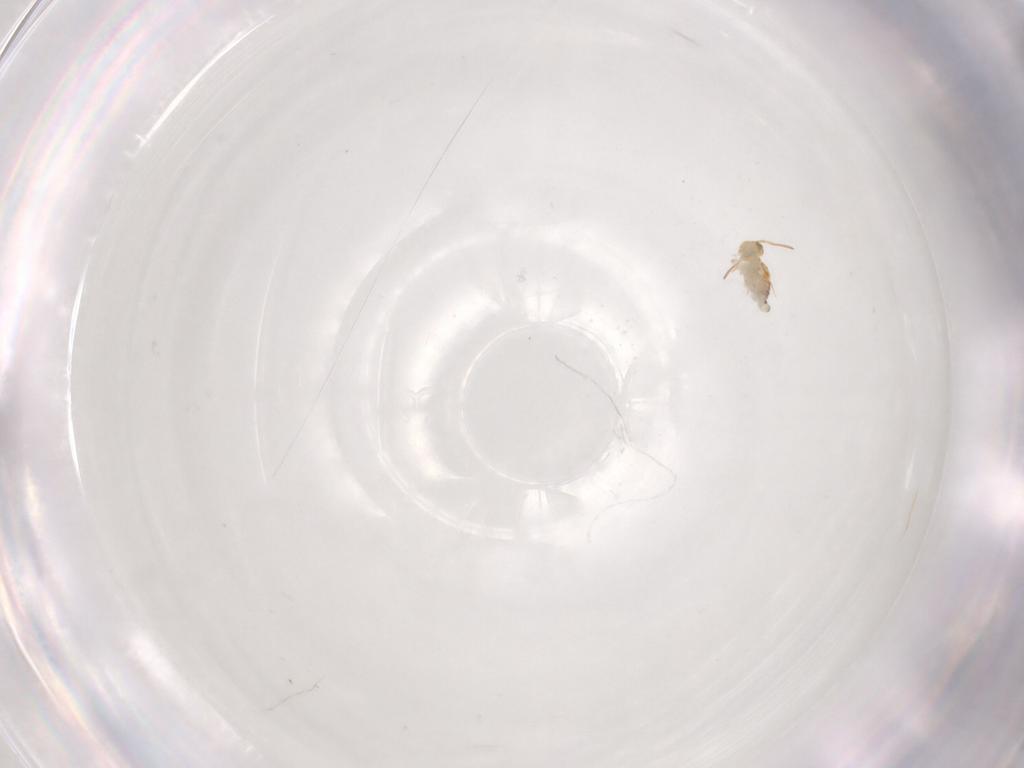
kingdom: Animalia
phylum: Arthropoda
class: Collembola
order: Symphypleona
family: Bourletiellidae
